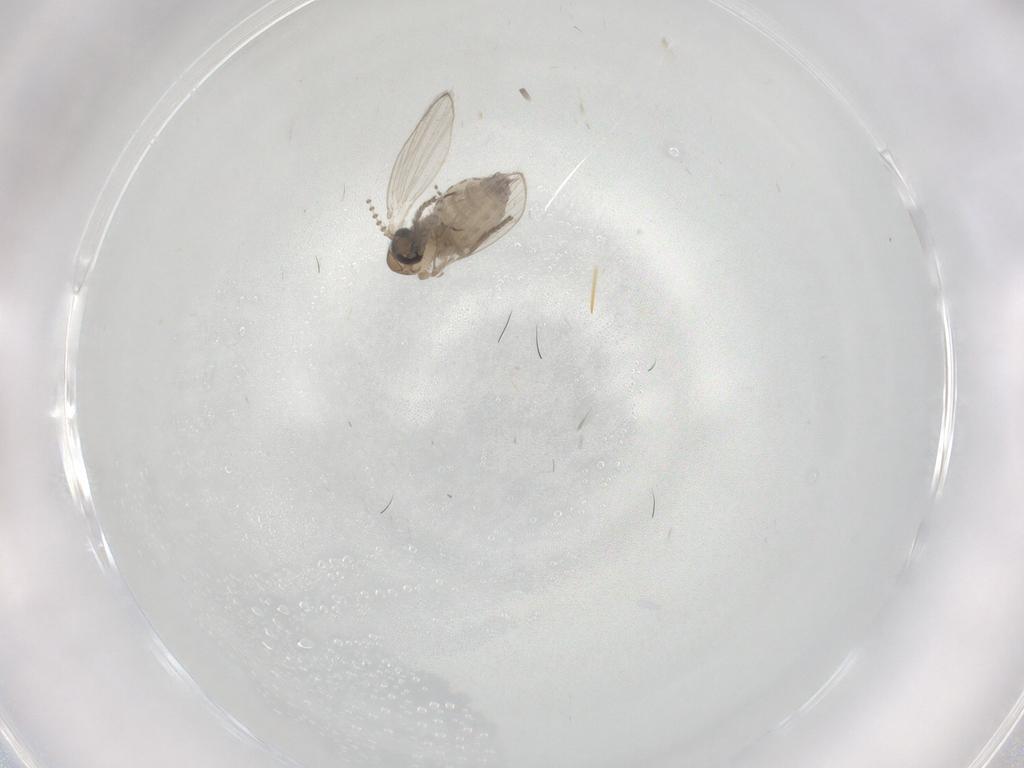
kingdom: Animalia
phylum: Arthropoda
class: Insecta
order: Diptera
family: Psychodidae
